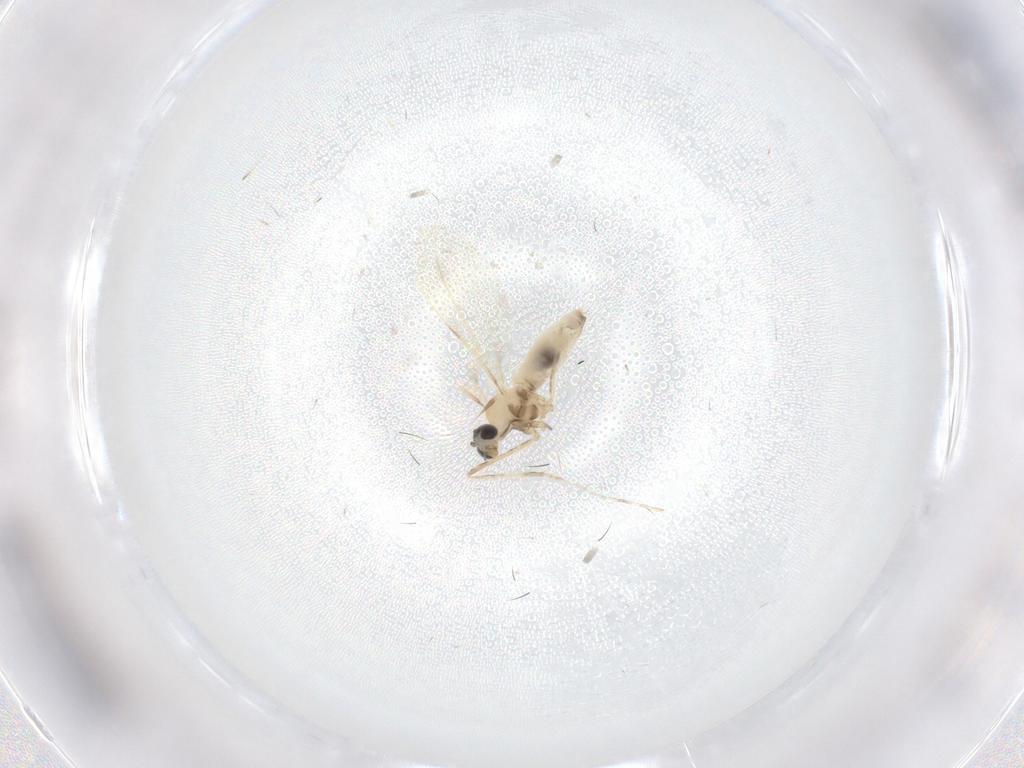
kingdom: Animalia
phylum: Arthropoda
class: Insecta
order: Diptera
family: Cecidomyiidae
